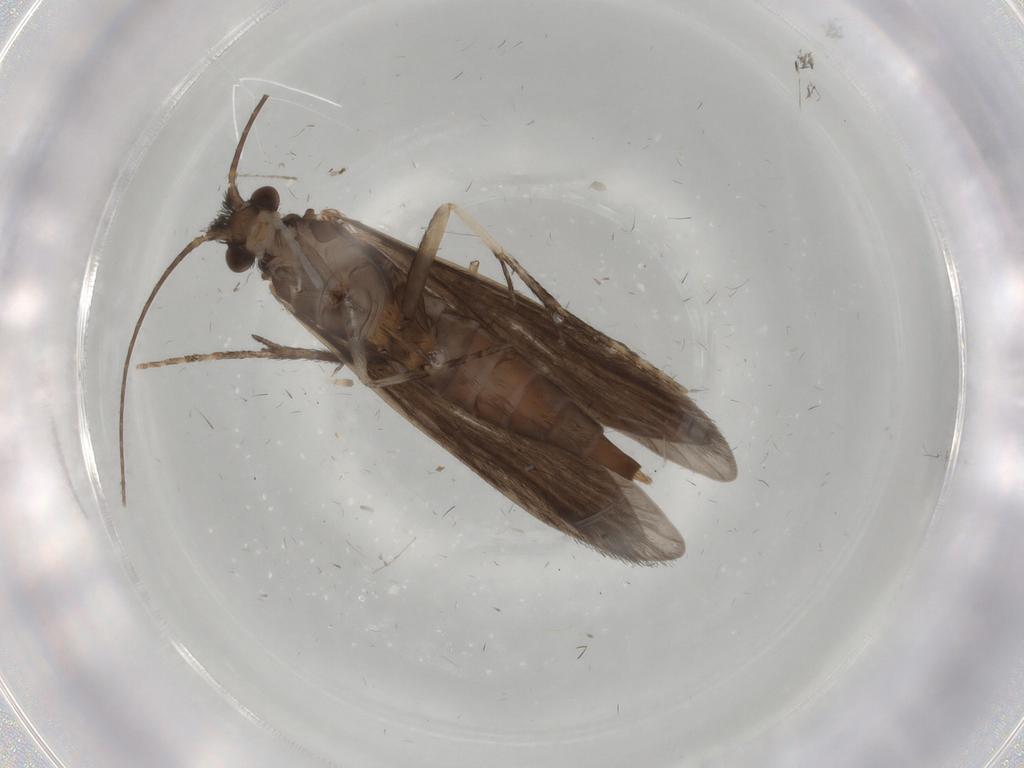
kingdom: Animalia
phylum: Arthropoda
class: Insecta
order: Trichoptera
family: Xiphocentronidae
